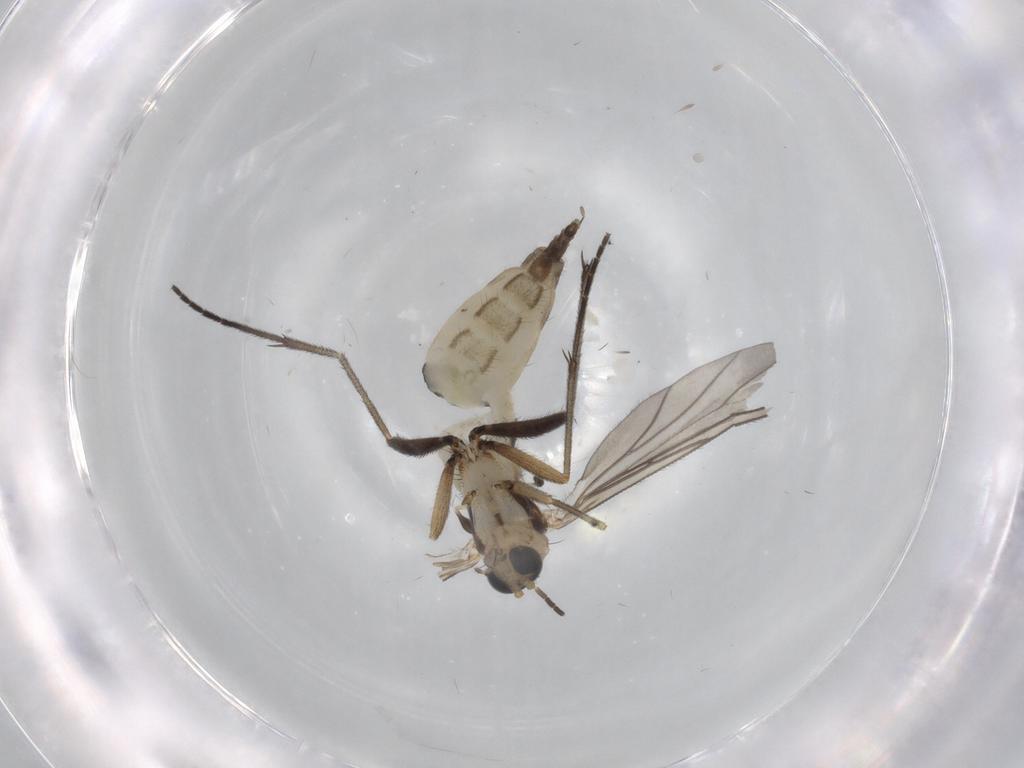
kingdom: Animalia
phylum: Arthropoda
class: Insecta
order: Diptera
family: Sciaridae
